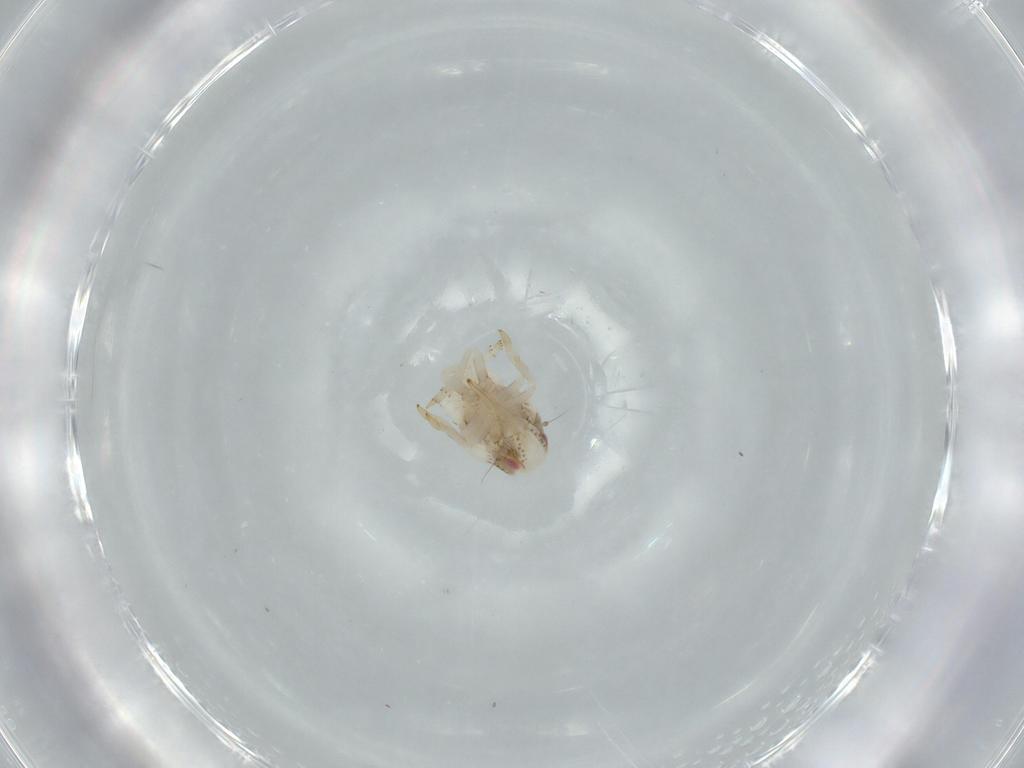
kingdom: Animalia
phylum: Arthropoda
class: Insecta
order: Hemiptera
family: Acanaloniidae
